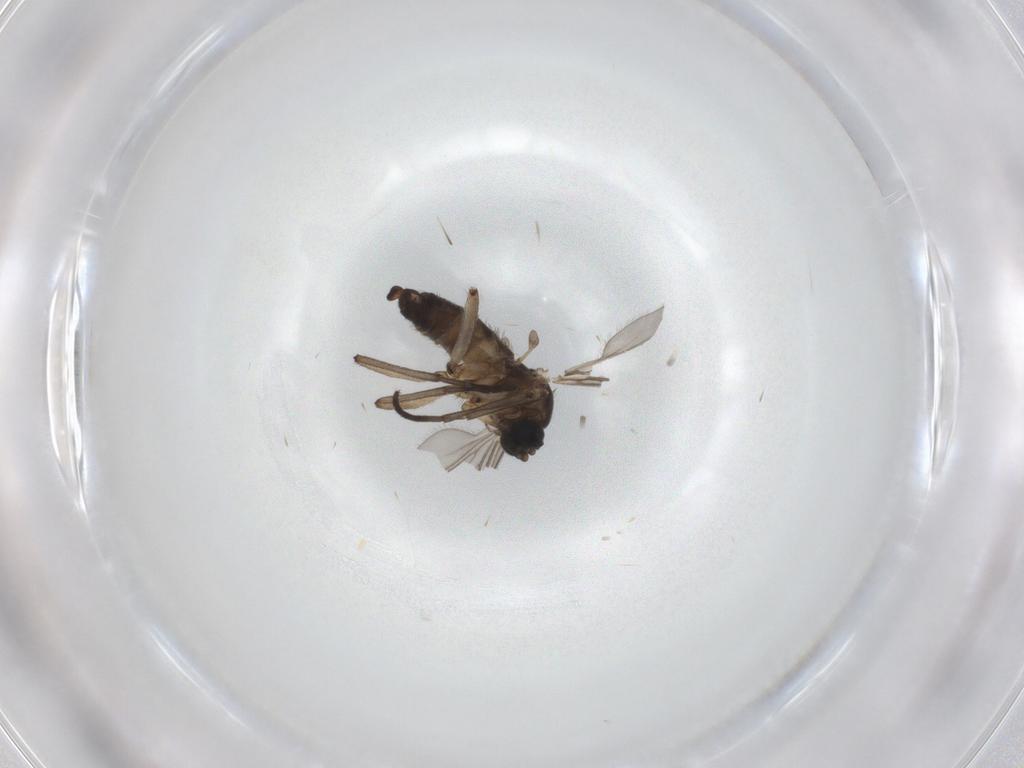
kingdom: Animalia
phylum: Arthropoda
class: Insecta
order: Diptera
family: Sciaridae
